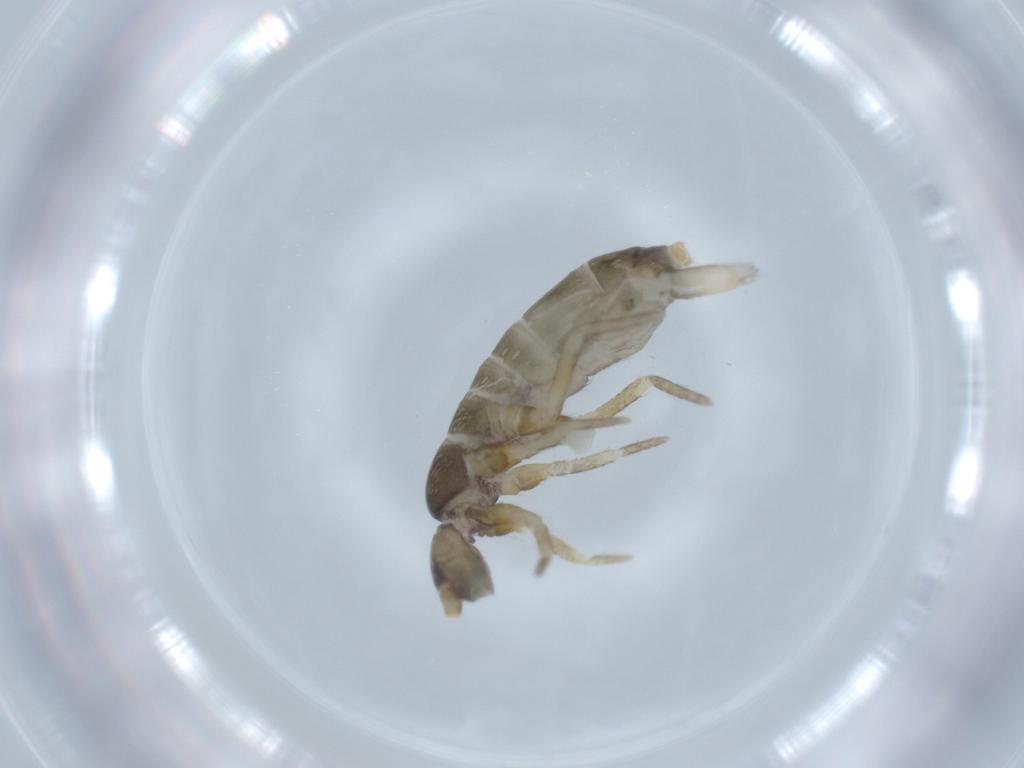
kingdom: Animalia
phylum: Arthropoda
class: Collembola
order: Entomobryomorpha
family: Tomoceridae
